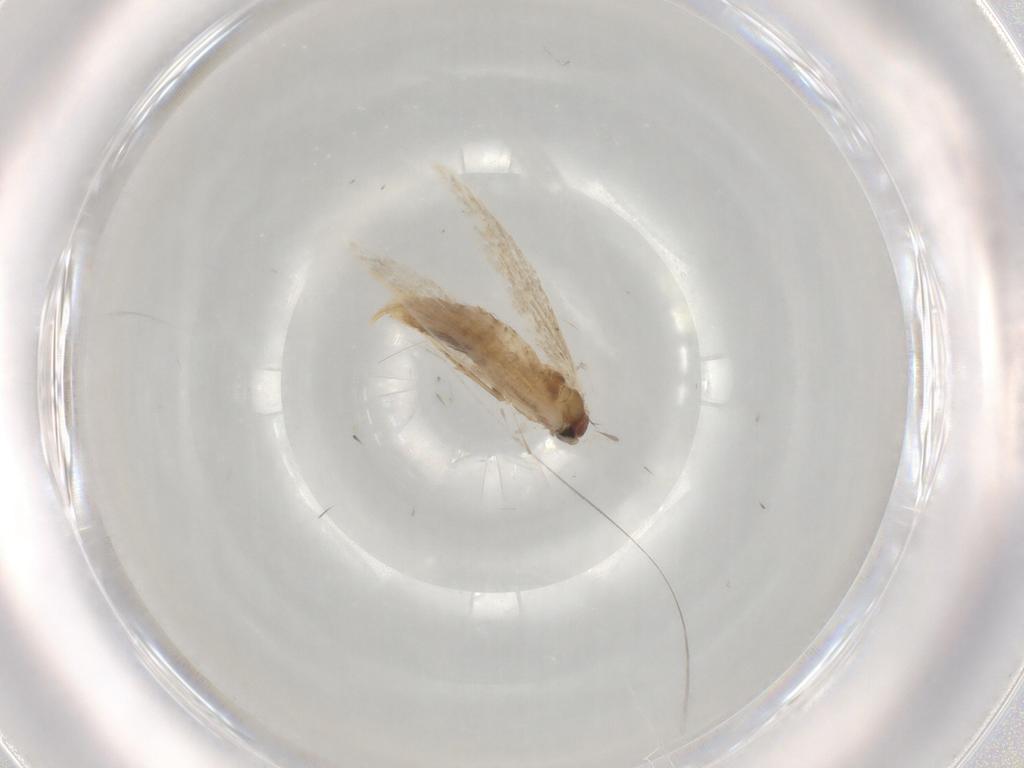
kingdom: Animalia
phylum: Arthropoda
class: Insecta
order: Lepidoptera
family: Tineidae
